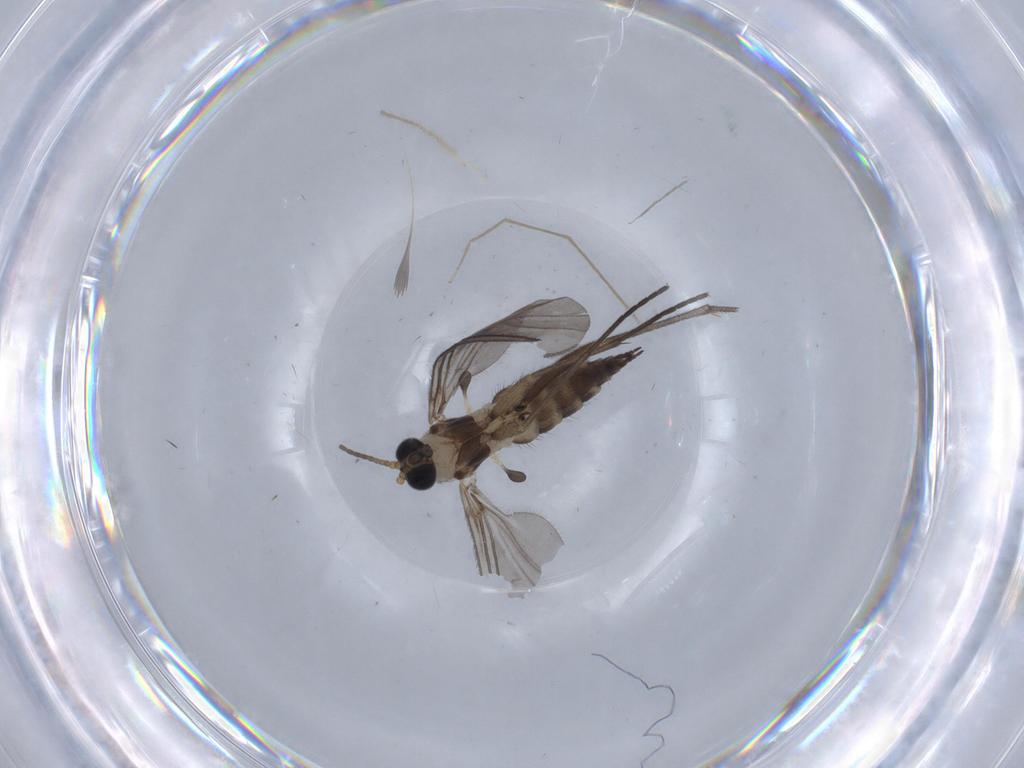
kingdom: Animalia
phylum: Arthropoda
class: Insecta
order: Diptera
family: Sciaridae
